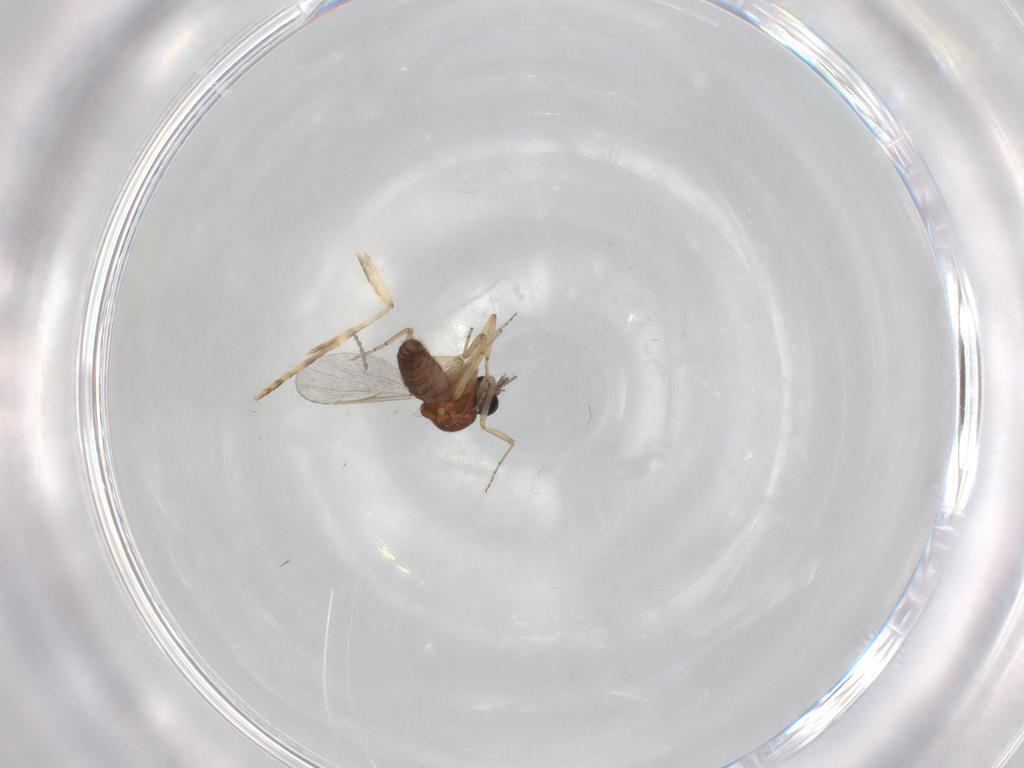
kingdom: Animalia
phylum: Arthropoda
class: Insecta
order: Diptera
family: Ceratopogonidae
